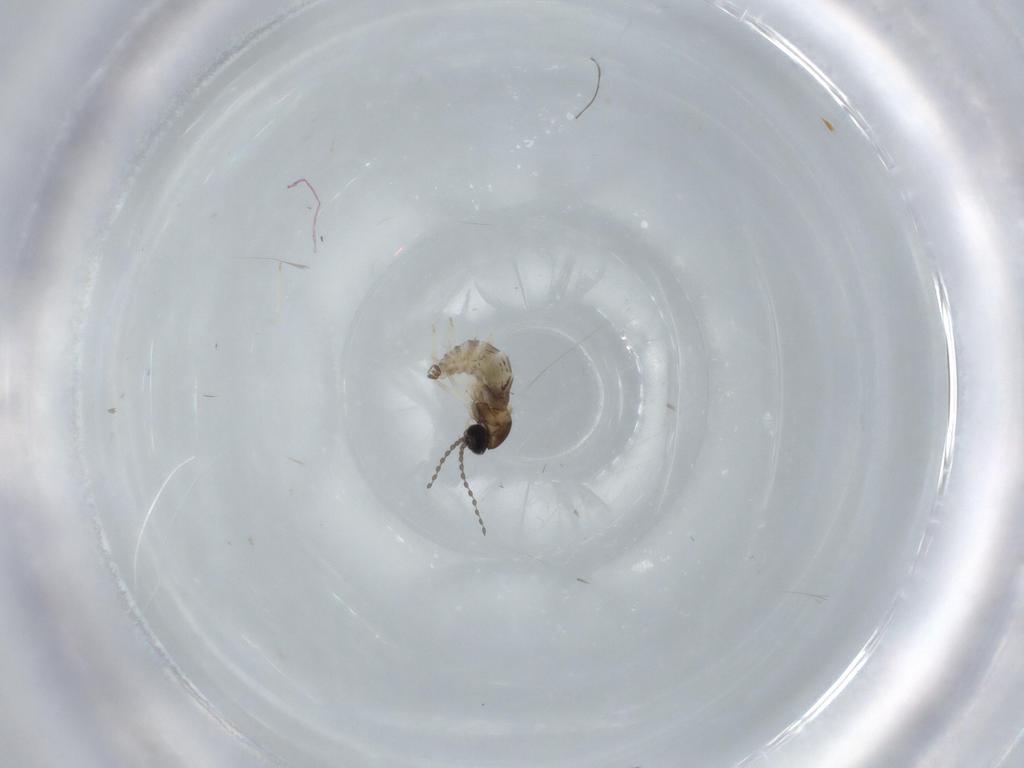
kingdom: Animalia
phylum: Arthropoda
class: Insecta
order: Diptera
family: Cecidomyiidae
